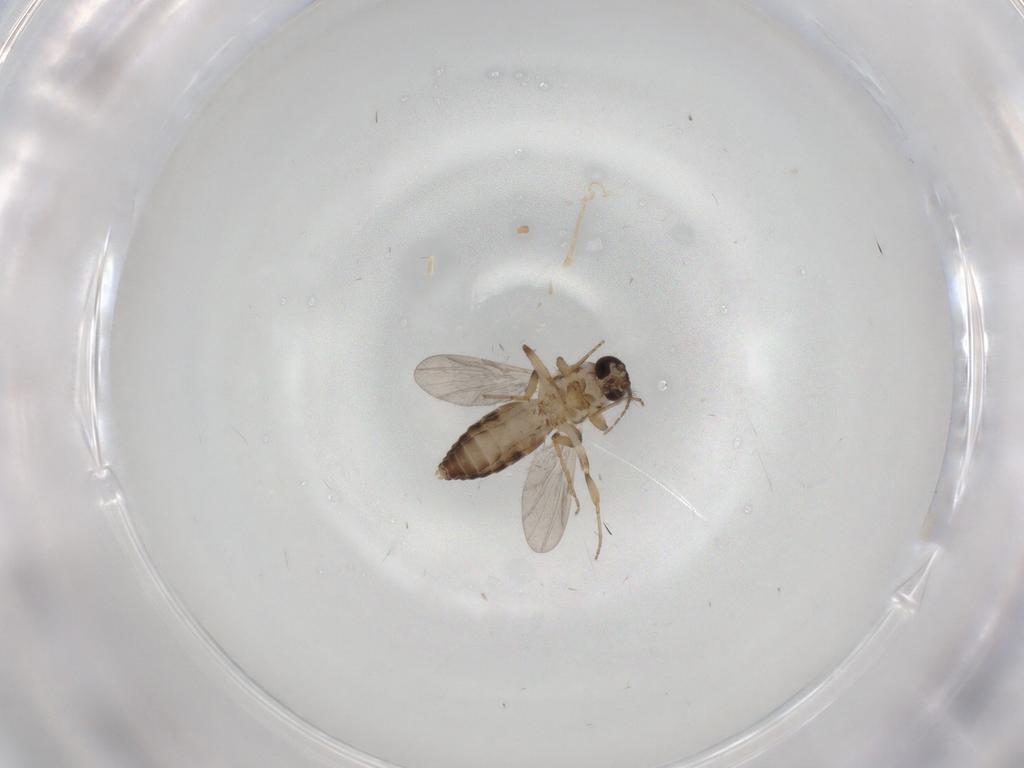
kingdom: Animalia
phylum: Arthropoda
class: Insecta
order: Diptera
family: Ceratopogonidae
